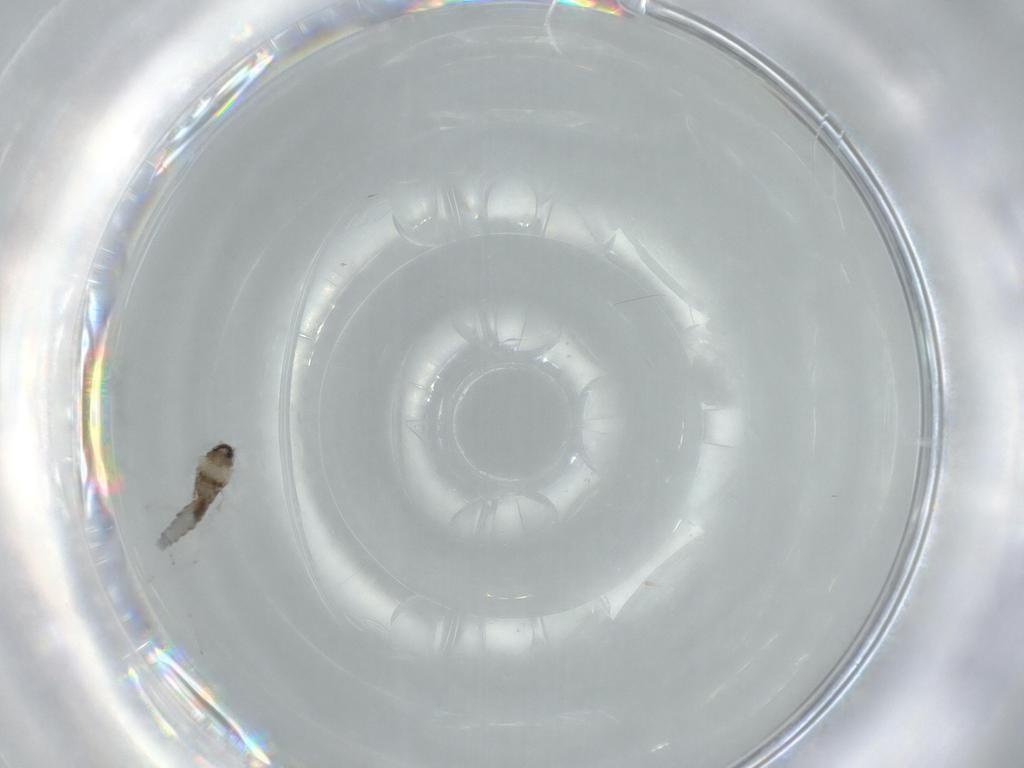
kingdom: Animalia
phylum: Arthropoda
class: Insecta
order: Diptera
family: Cecidomyiidae
